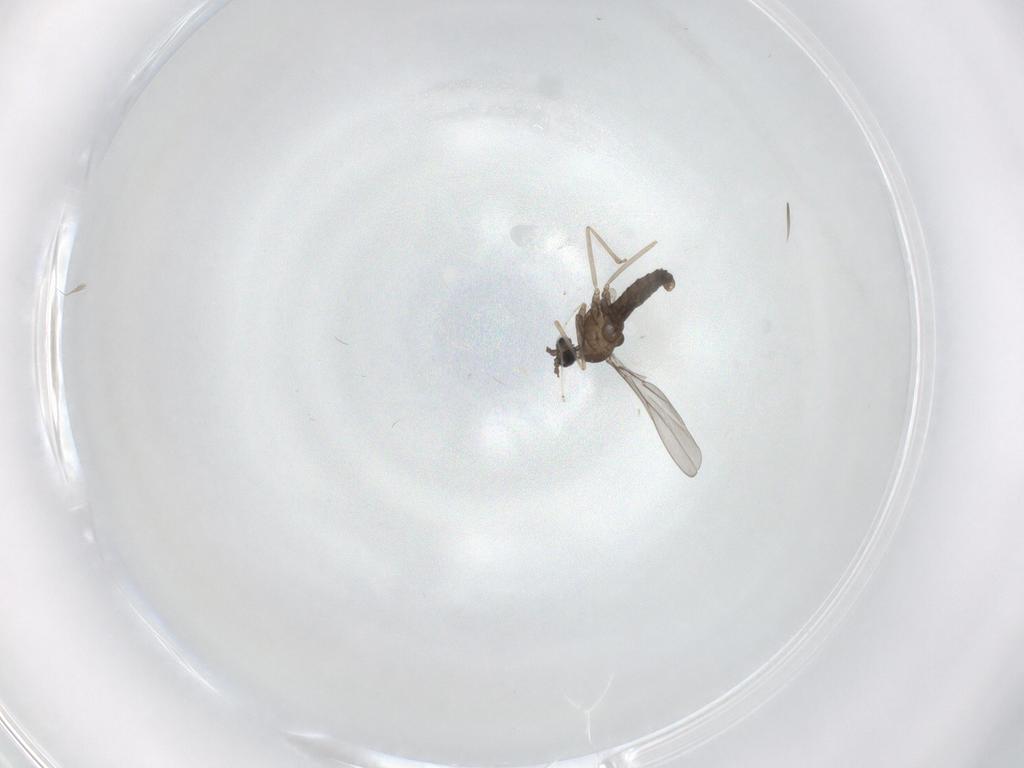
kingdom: Animalia
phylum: Arthropoda
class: Insecta
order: Diptera
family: Cecidomyiidae
